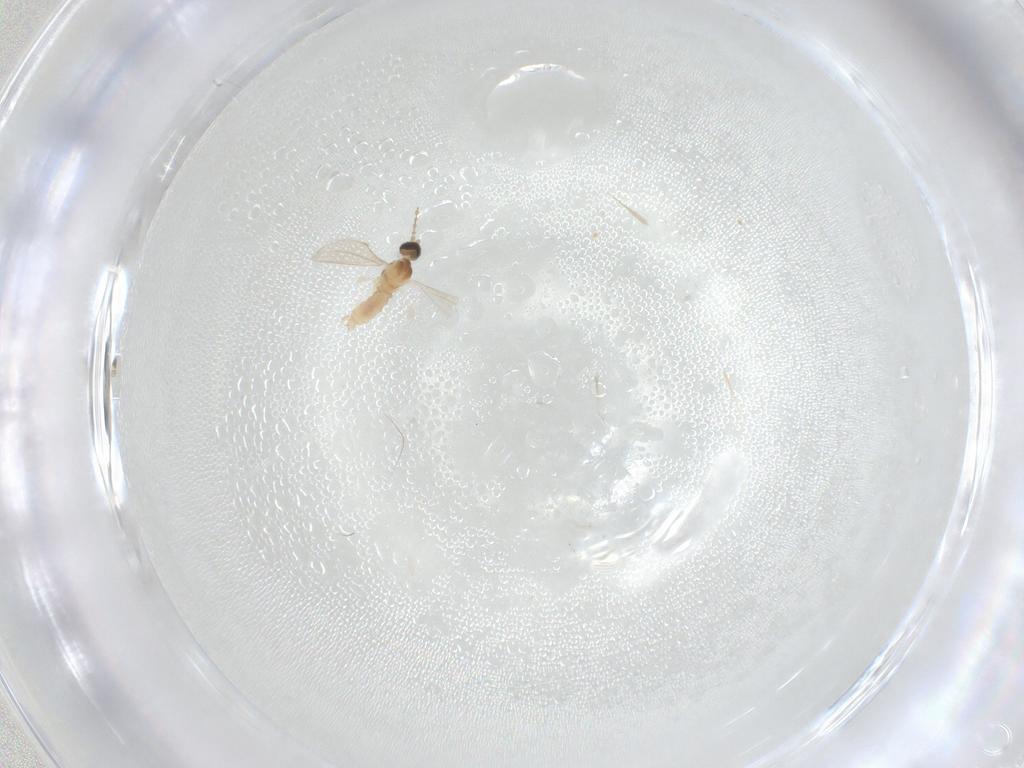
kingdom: Animalia
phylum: Arthropoda
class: Insecta
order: Diptera
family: Cecidomyiidae
